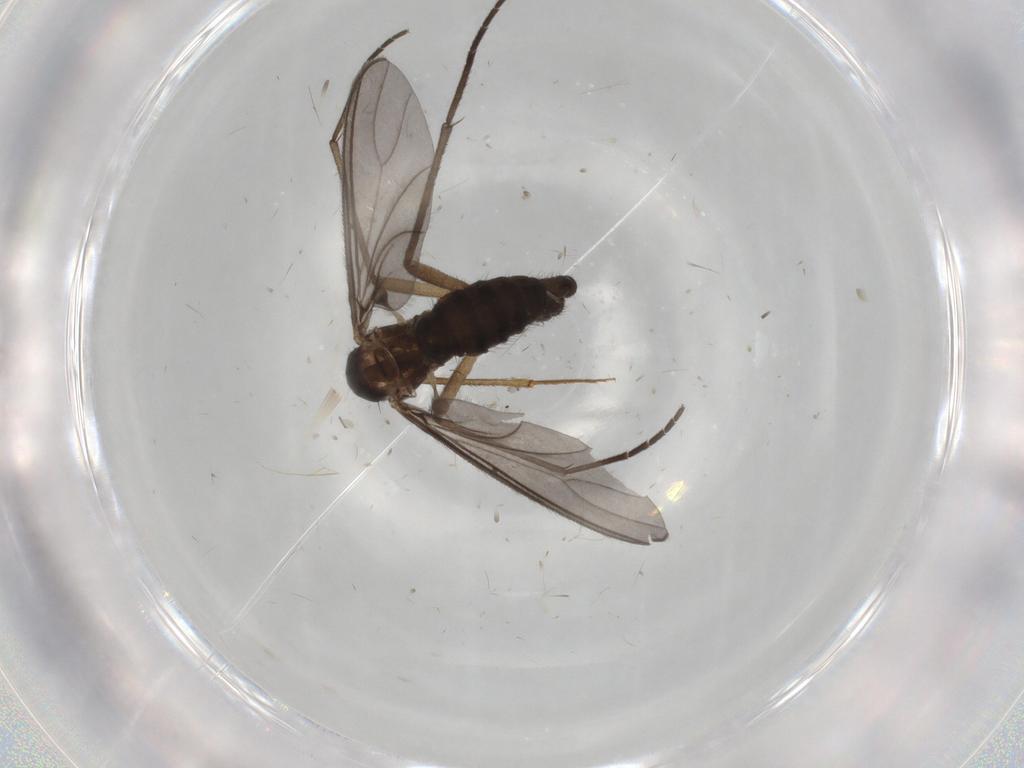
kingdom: Animalia
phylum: Arthropoda
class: Insecta
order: Diptera
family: Sciaridae
